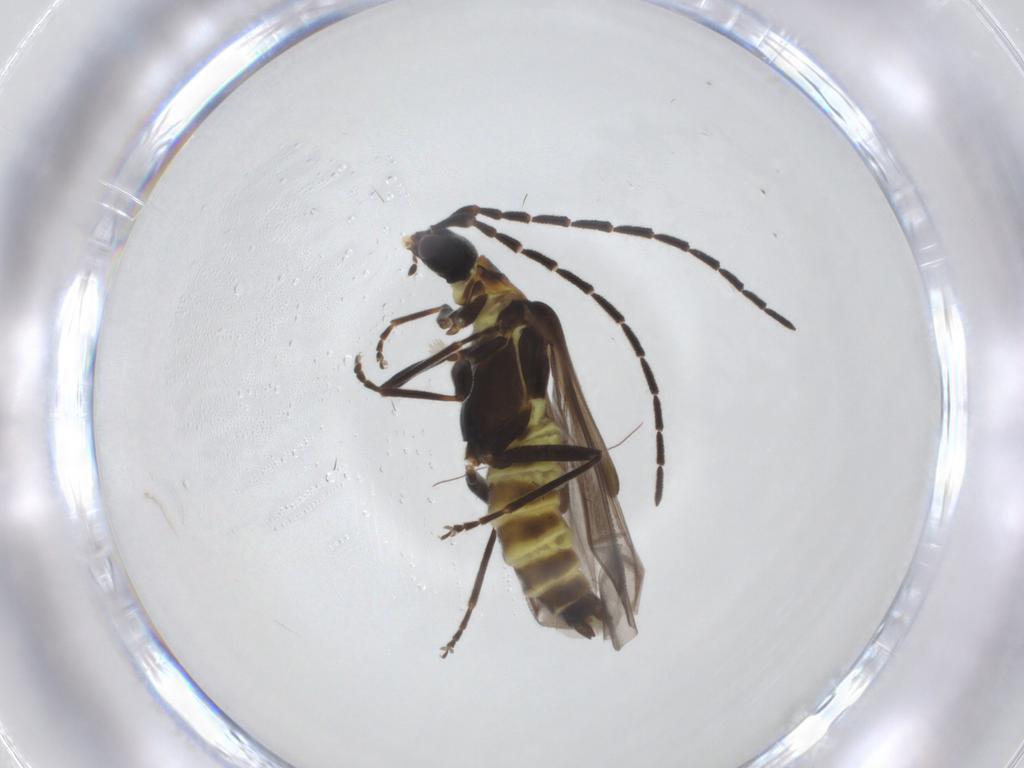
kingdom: Animalia
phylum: Arthropoda
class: Insecta
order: Coleoptera
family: Cantharidae
